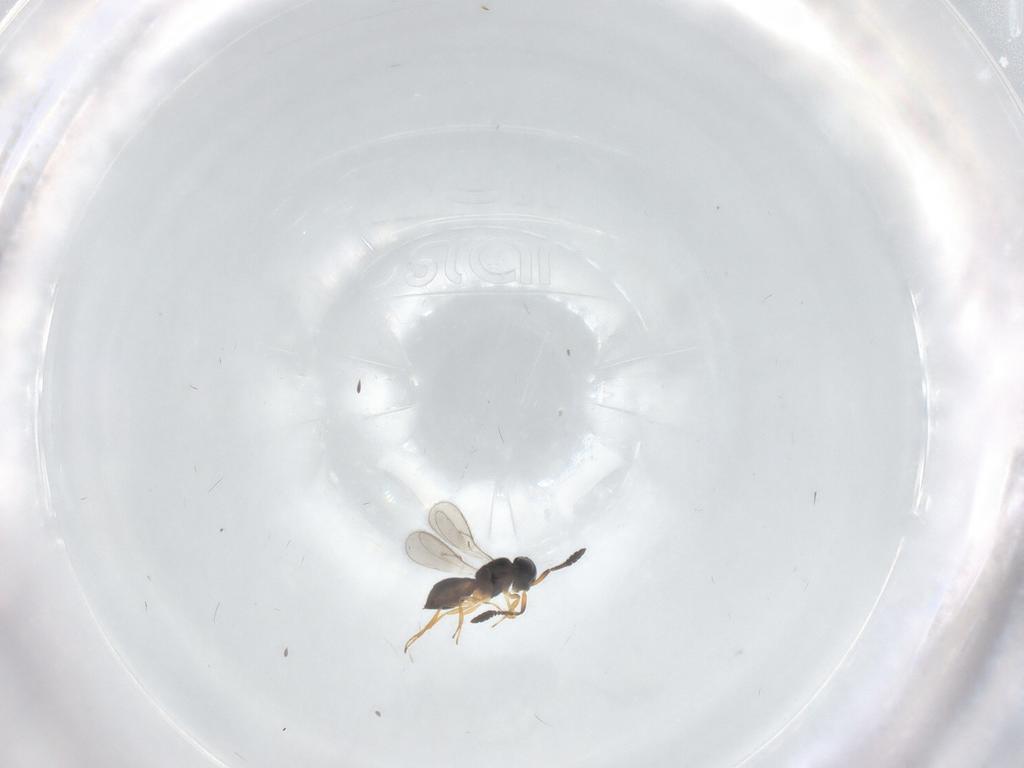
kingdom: Animalia
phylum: Arthropoda
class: Insecta
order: Hymenoptera
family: Scelionidae
